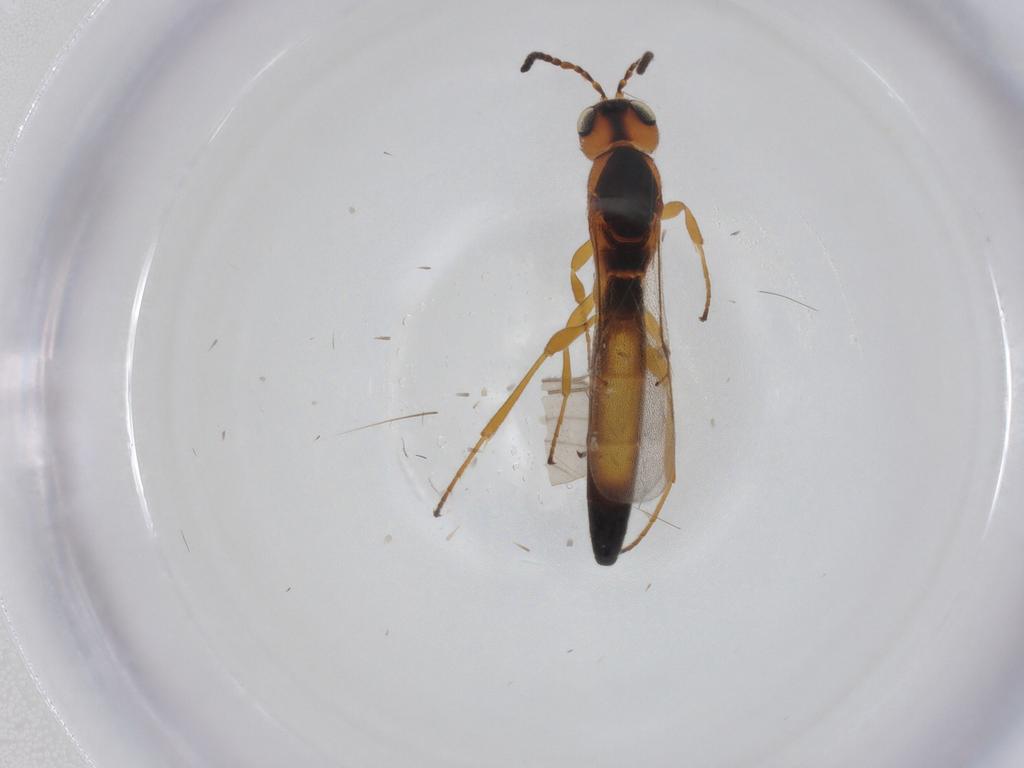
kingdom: Animalia
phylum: Arthropoda
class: Insecta
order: Hymenoptera
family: Scelionidae
